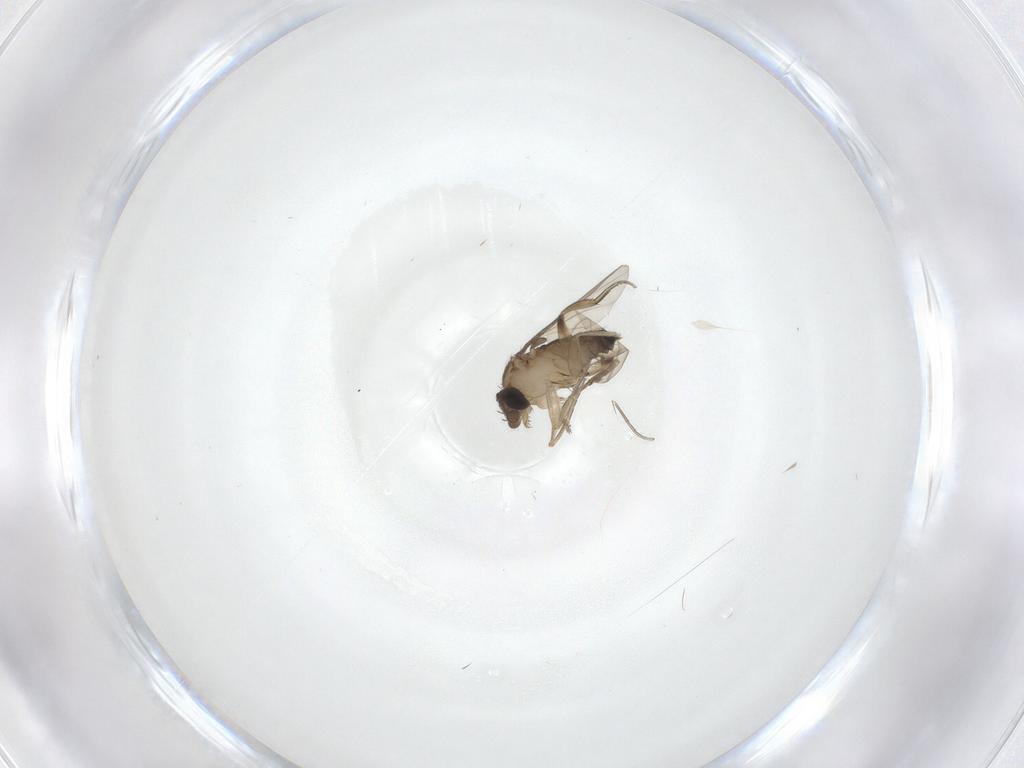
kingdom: Animalia
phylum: Arthropoda
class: Insecta
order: Diptera
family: Phoridae
